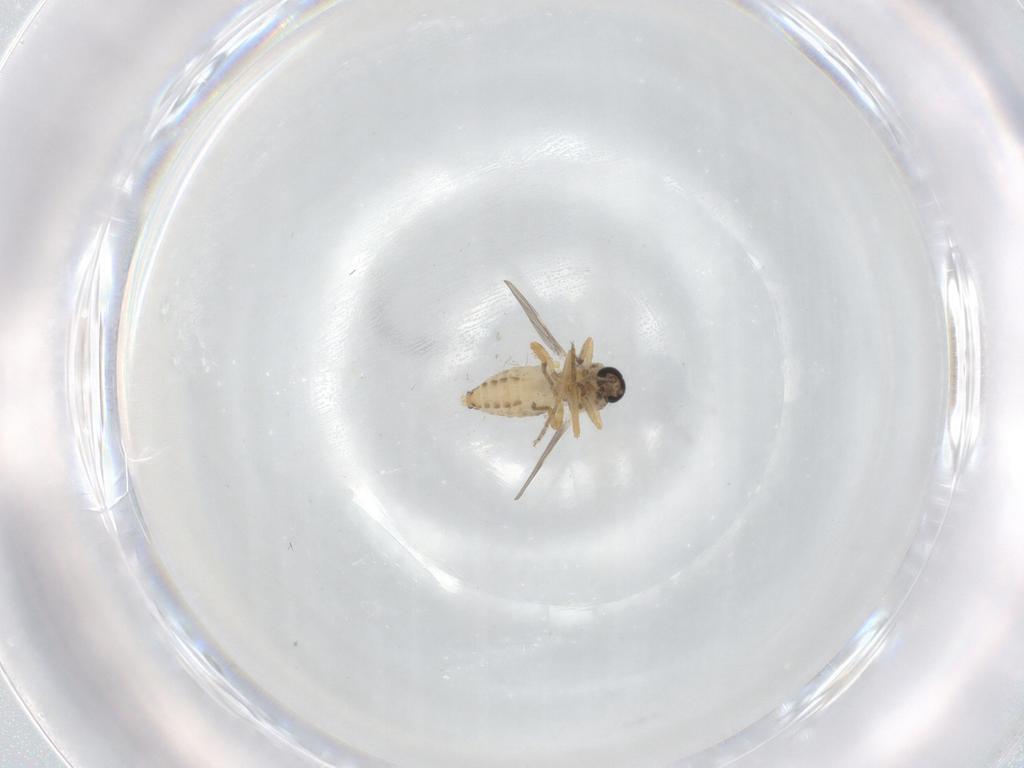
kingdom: Animalia
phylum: Arthropoda
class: Insecta
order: Diptera
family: Ceratopogonidae
